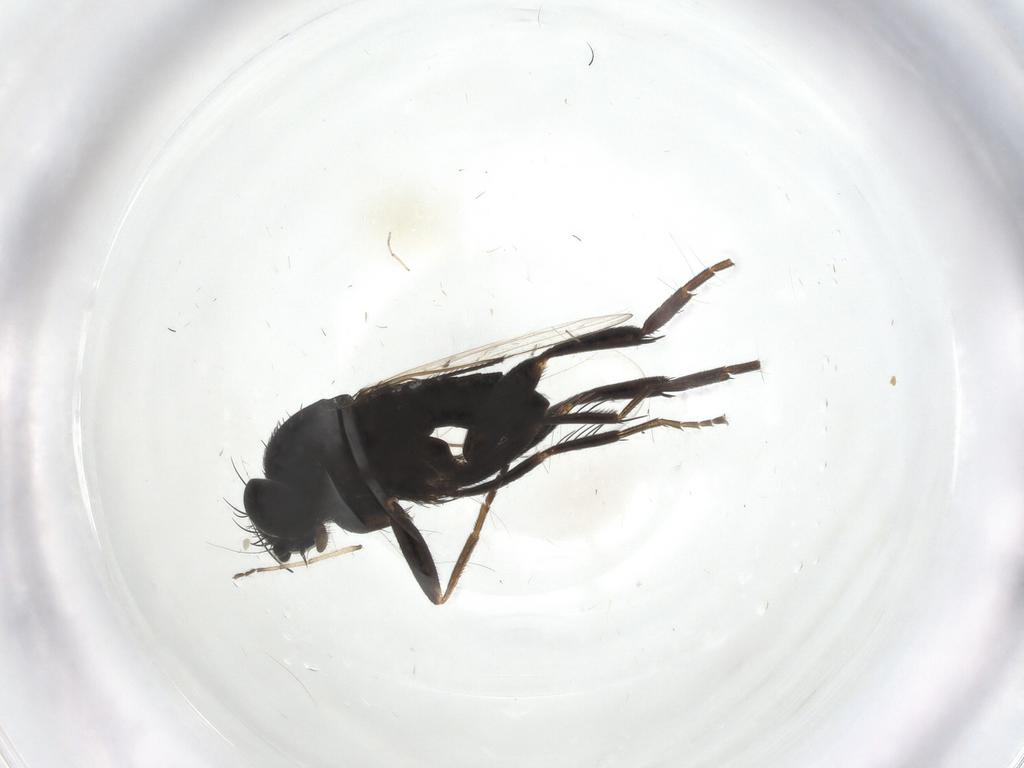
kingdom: Animalia
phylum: Arthropoda
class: Insecta
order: Diptera
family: Phoridae
